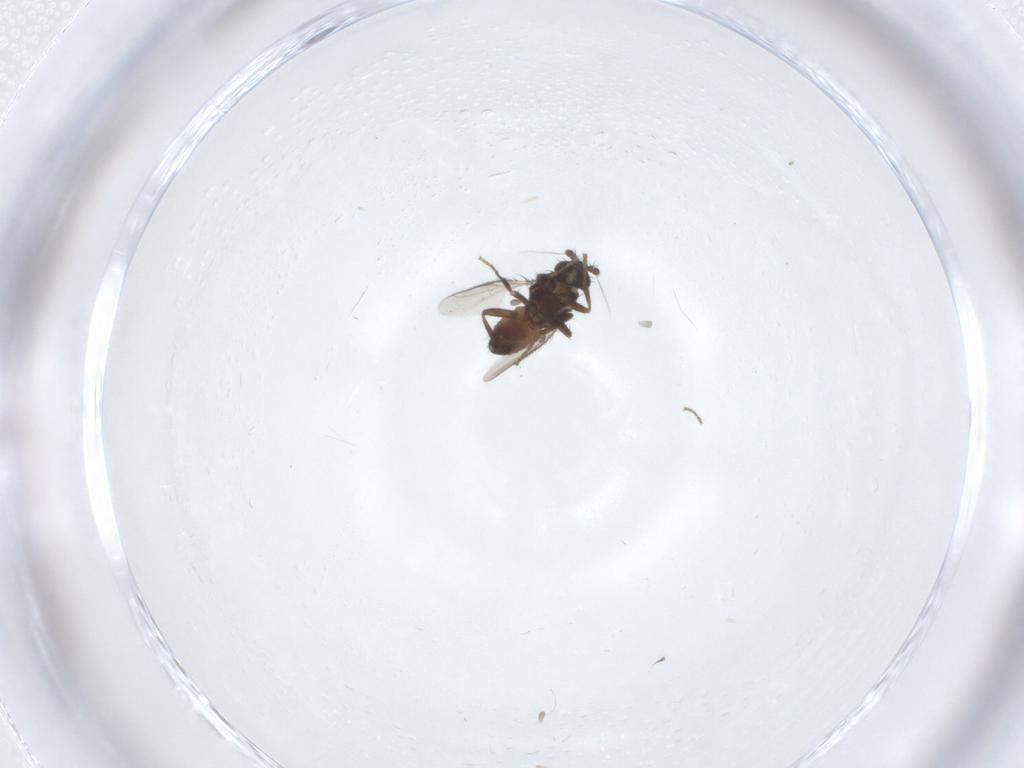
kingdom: Animalia
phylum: Arthropoda
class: Insecta
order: Diptera
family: Sphaeroceridae
